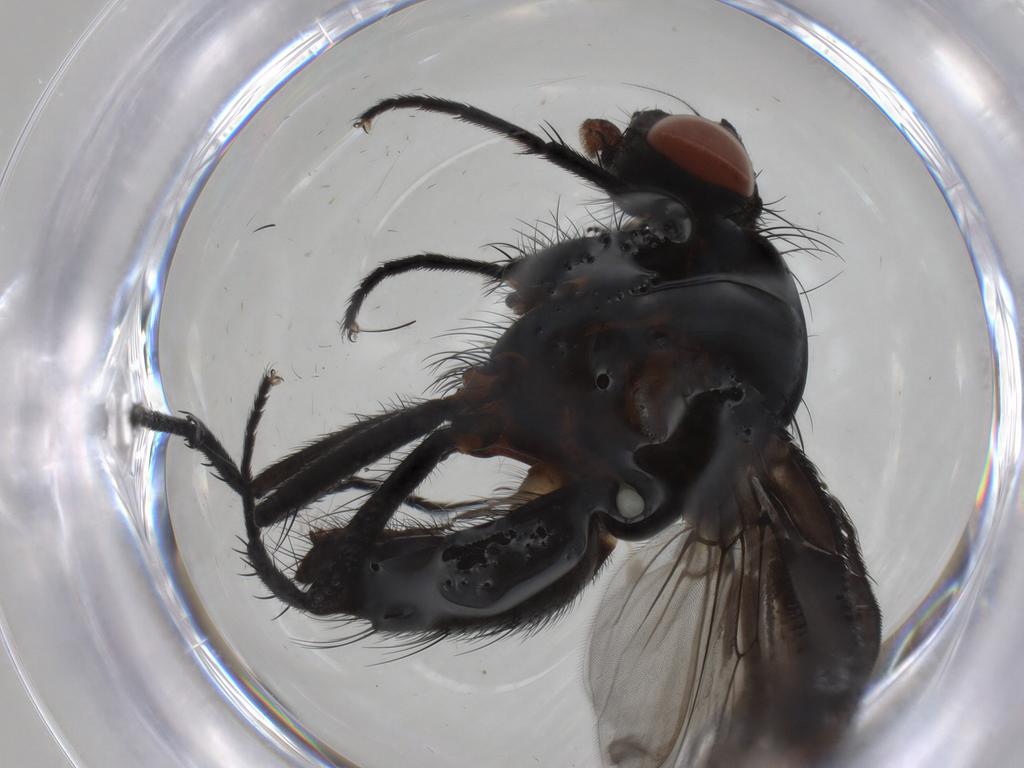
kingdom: Animalia
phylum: Arthropoda
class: Insecta
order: Diptera
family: Anthomyiidae
